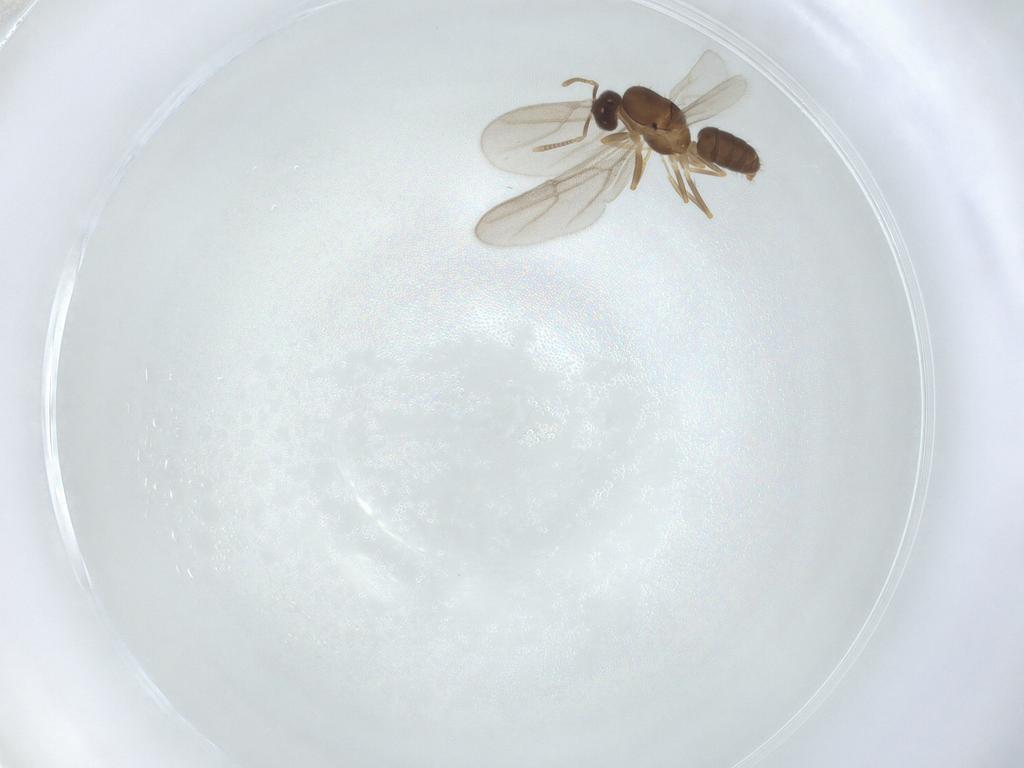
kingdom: Animalia
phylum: Arthropoda
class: Insecta
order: Hymenoptera
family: Formicidae
